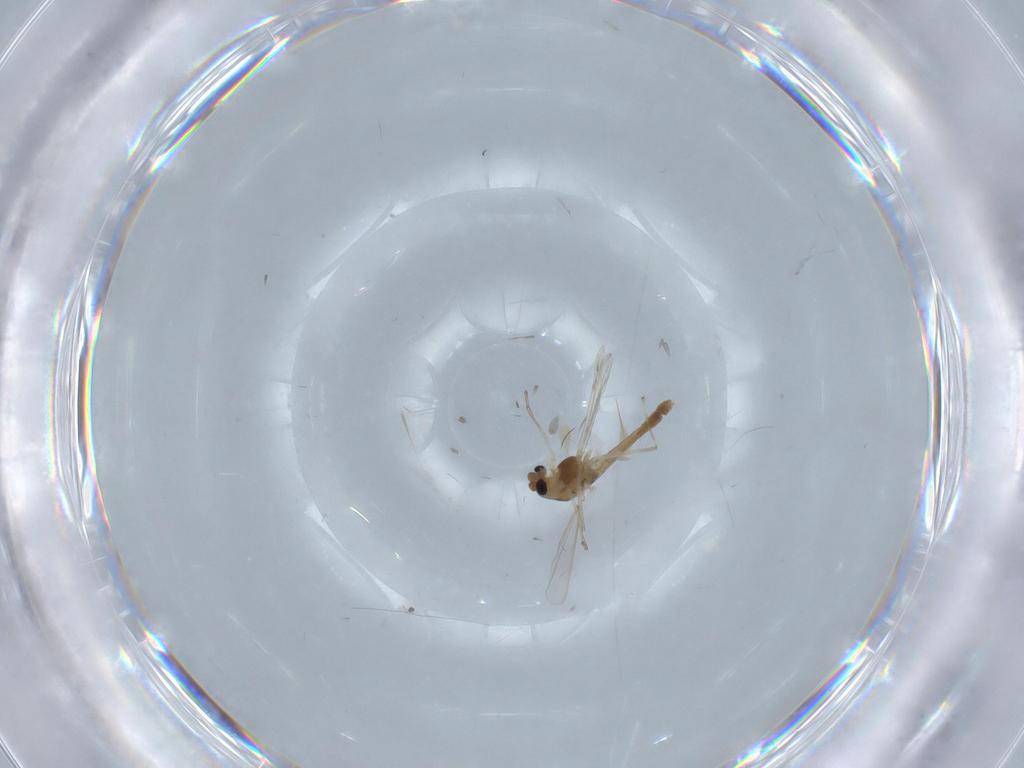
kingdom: Animalia
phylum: Arthropoda
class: Insecta
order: Diptera
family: Chironomidae
